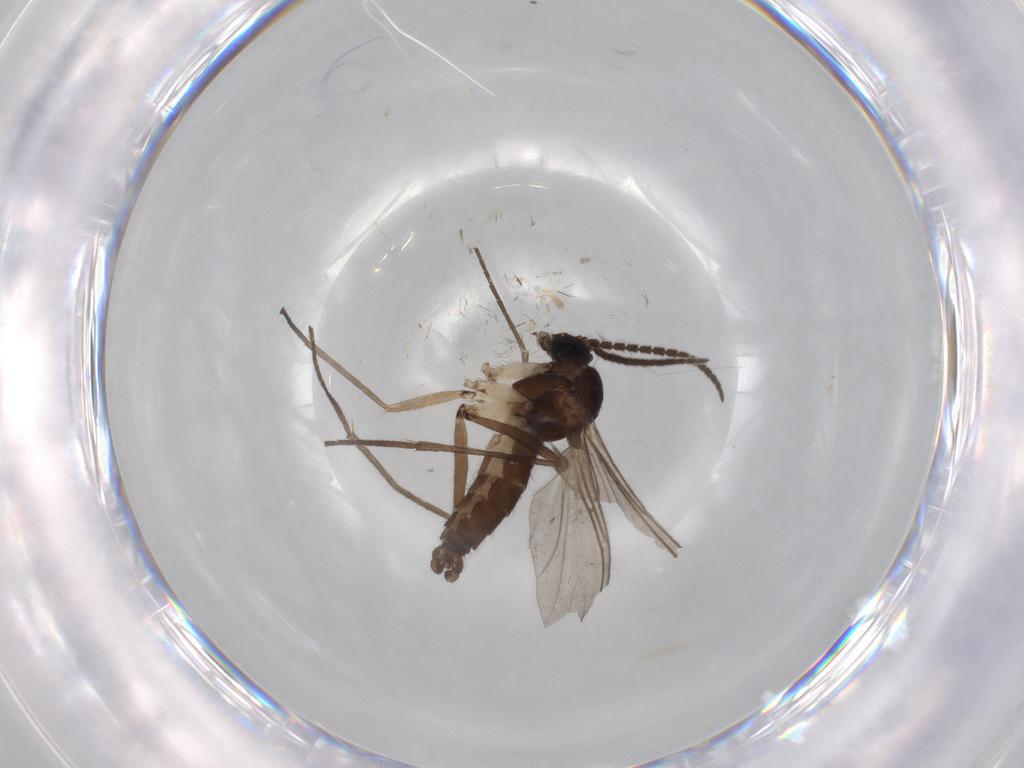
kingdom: Animalia
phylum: Arthropoda
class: Insecta
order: Diptera
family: Sciaridae
